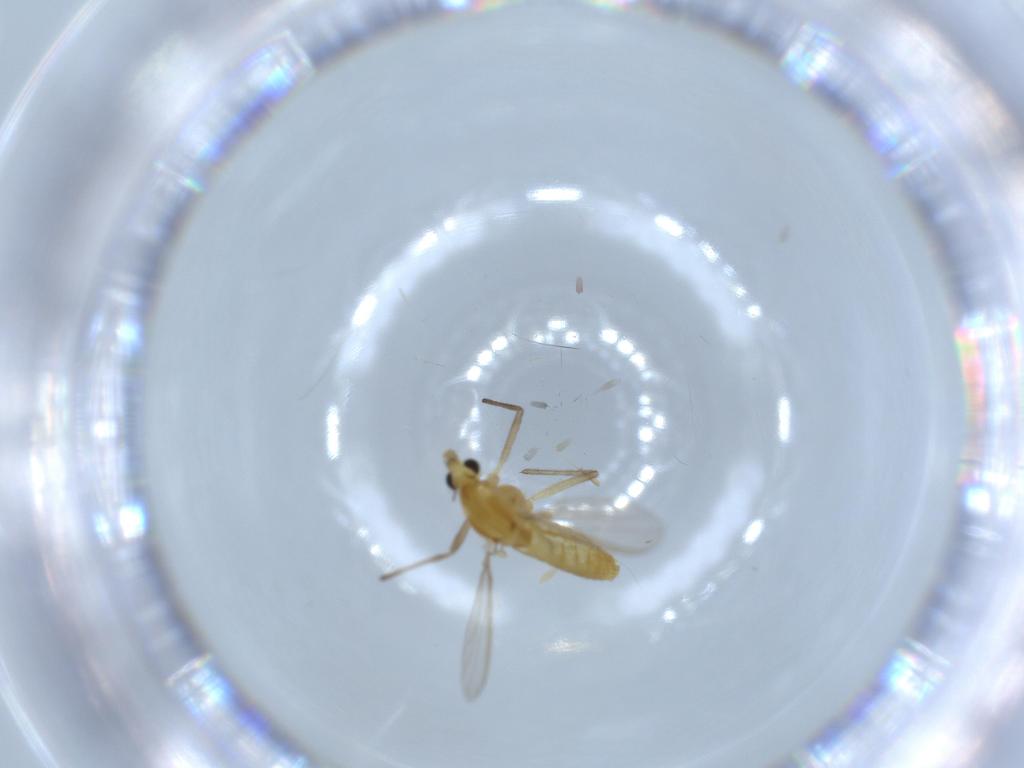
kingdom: Animalia
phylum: Arthropoda
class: Insecta
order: Diptera
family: Chironomidae
